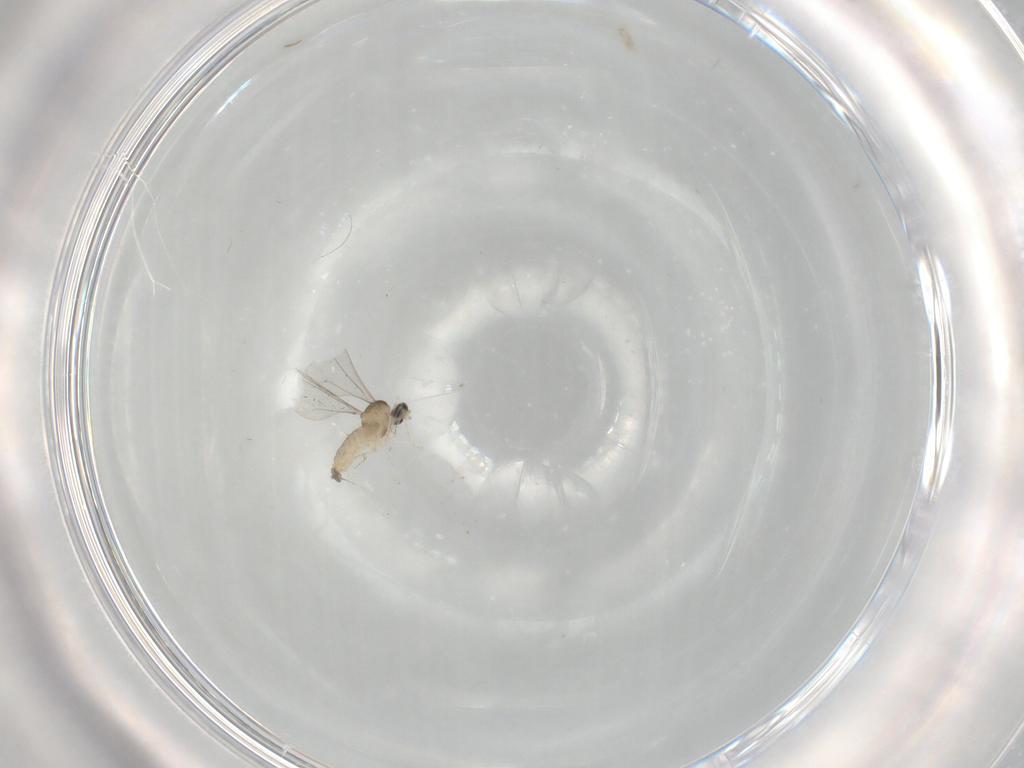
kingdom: Animalia
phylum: Arthropoda
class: Insecta
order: Diptera
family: Cecidomyiidae
